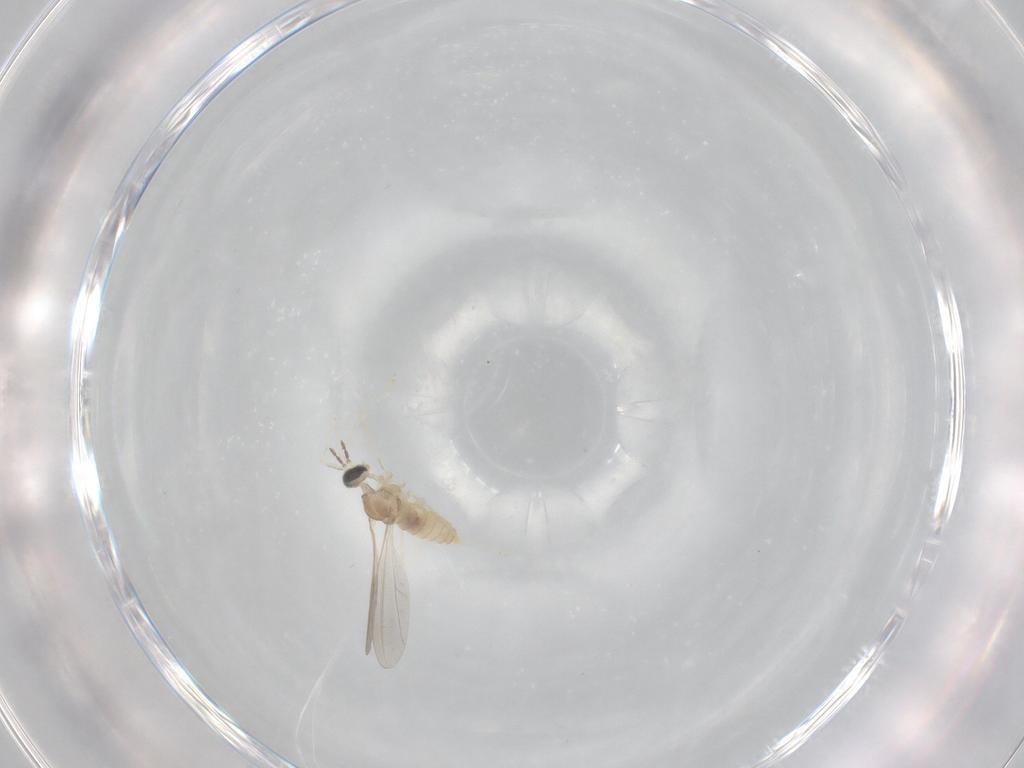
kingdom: Animalia
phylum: Arthropoda
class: Insecta
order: Diptera
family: Cecidomyiidae
